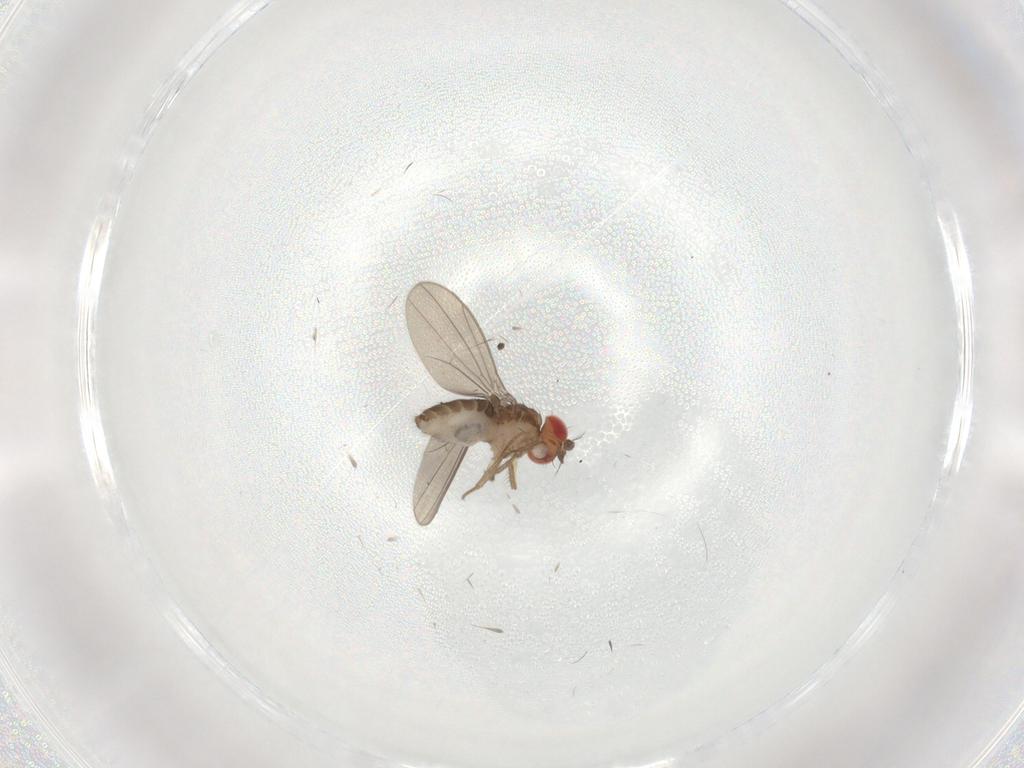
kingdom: Animalia
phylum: Arthropoda
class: Insecta
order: Diptera
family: Drosophilidae
